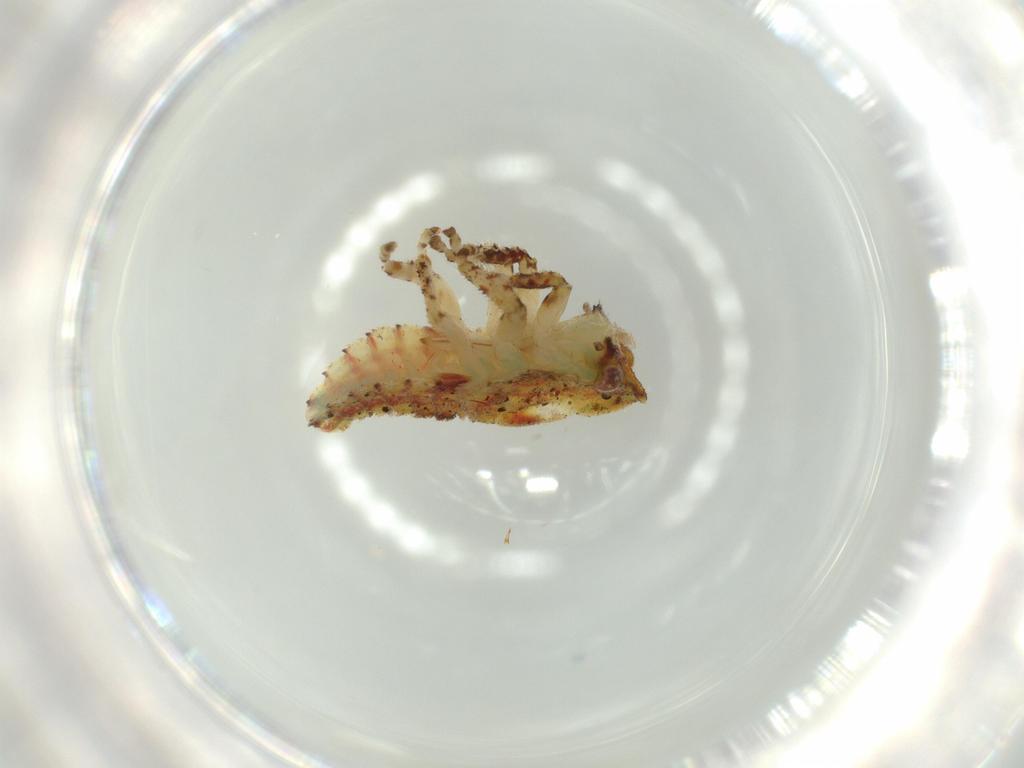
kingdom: Animalia
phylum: Arthropoda
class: Insecta
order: Hemiptera
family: Membracidae
